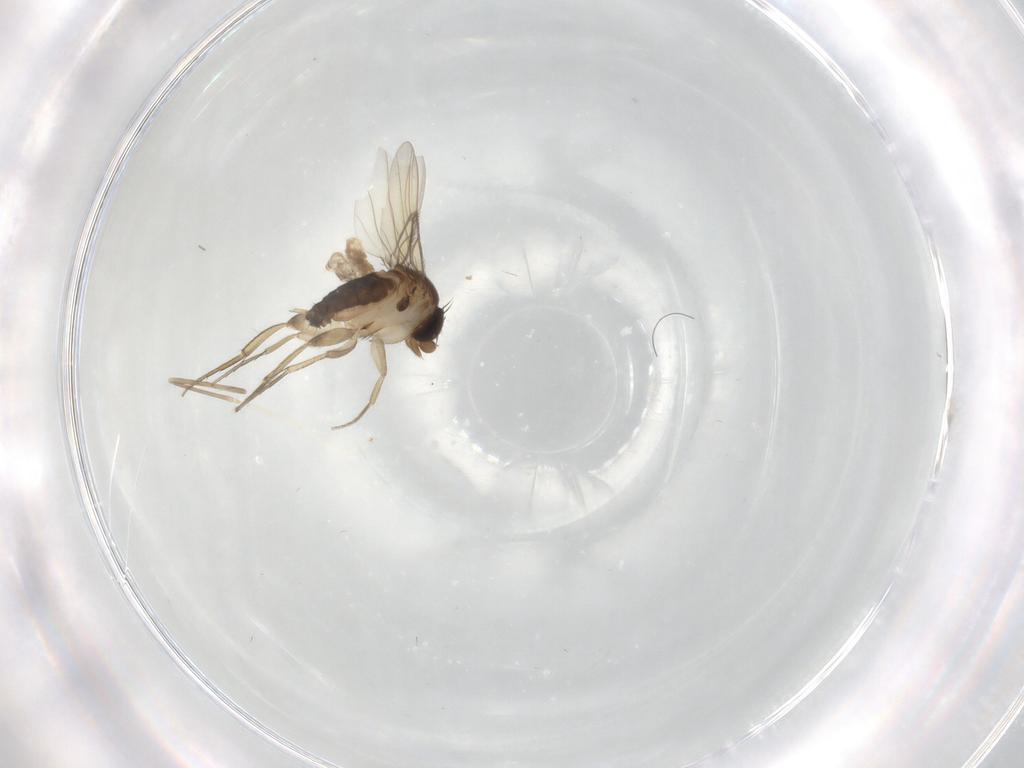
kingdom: Animalia
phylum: Arthropoda
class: Insecta
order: Diptera
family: Phoridae
